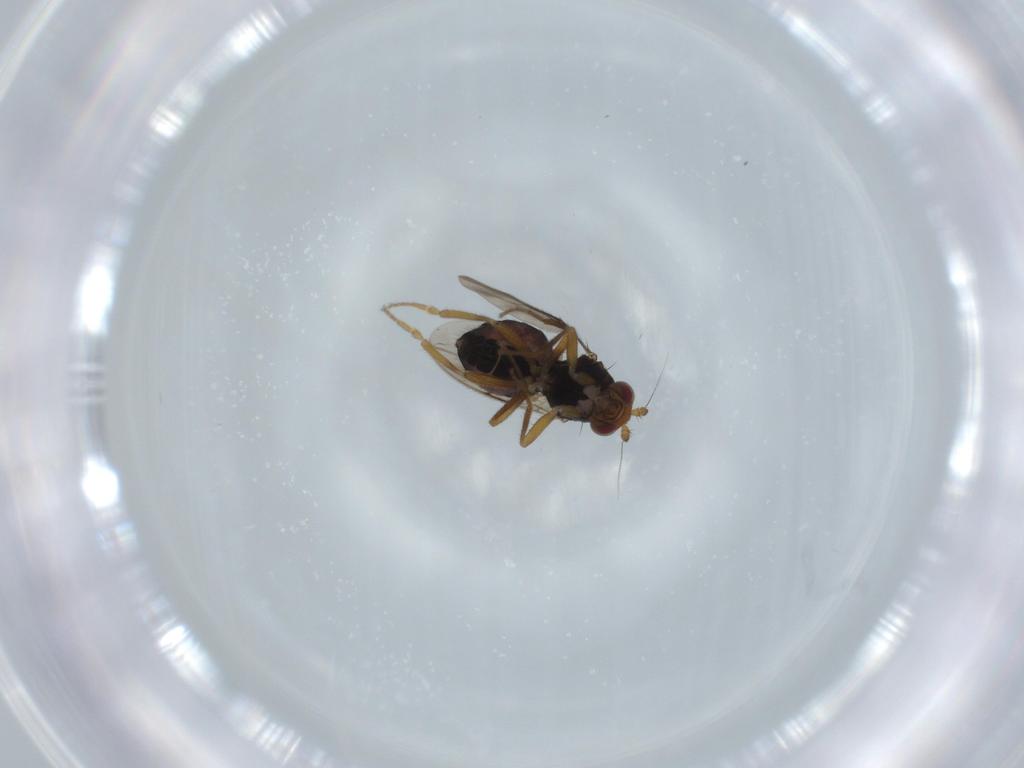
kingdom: Animalia
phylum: Arthropoda
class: Insecta
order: Diptera
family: Sphaeroceridae
